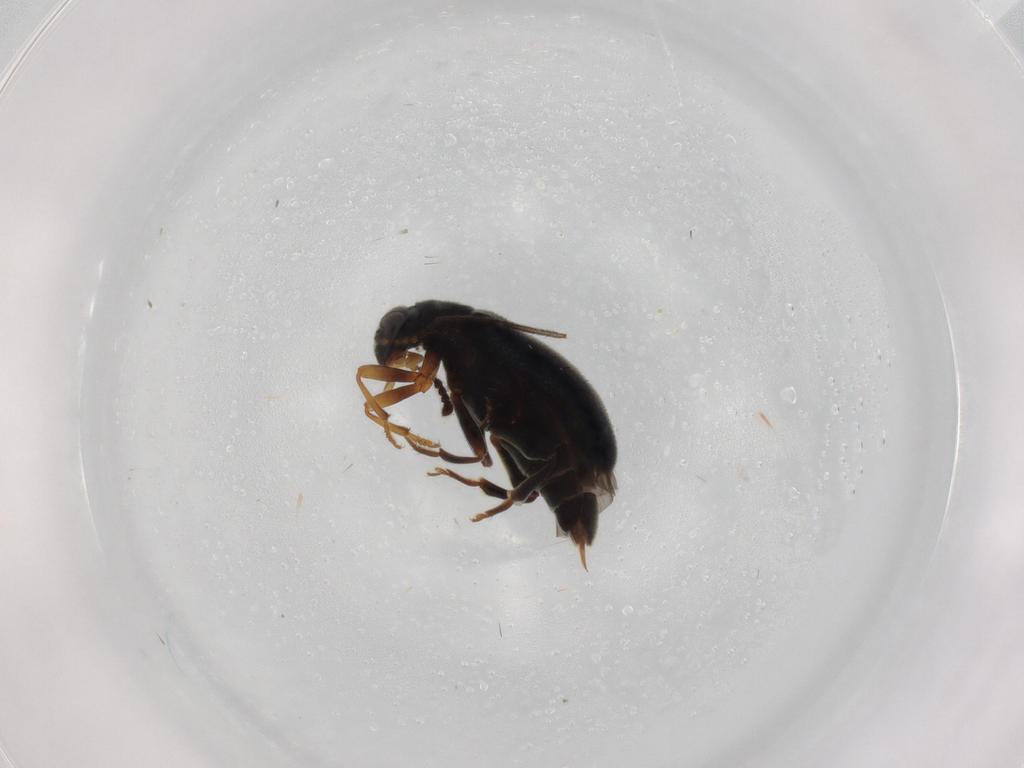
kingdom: Animalia
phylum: Arthropoda
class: Insecta
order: Coleoptera
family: Aderidae
